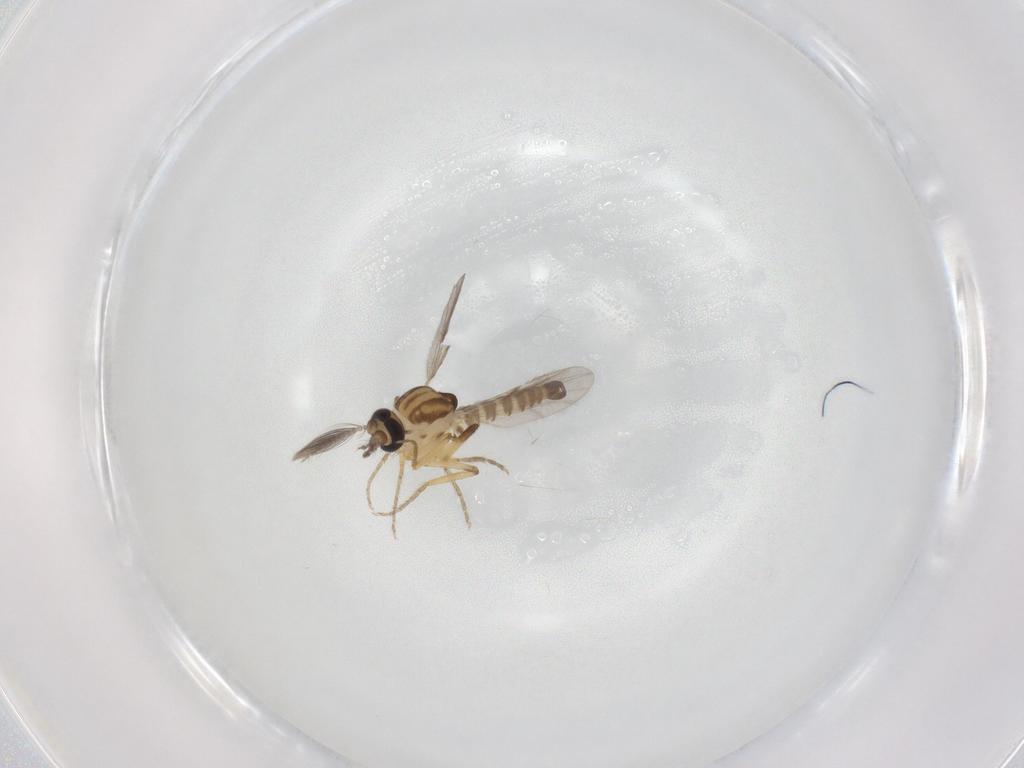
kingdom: Animalia
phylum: Arthropoda
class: Insecta
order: Diptera
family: Ceratopogonidae
